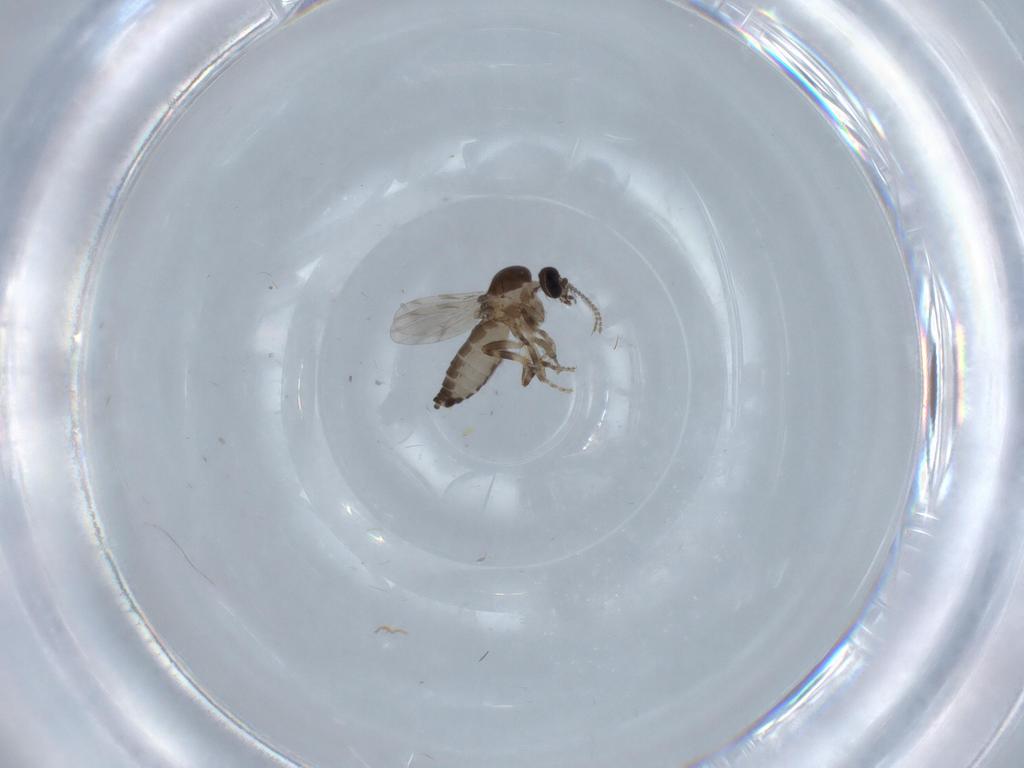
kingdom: Animalia
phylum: Arthropoda
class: Insecta
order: Diptera
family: Ceratopogonidae
